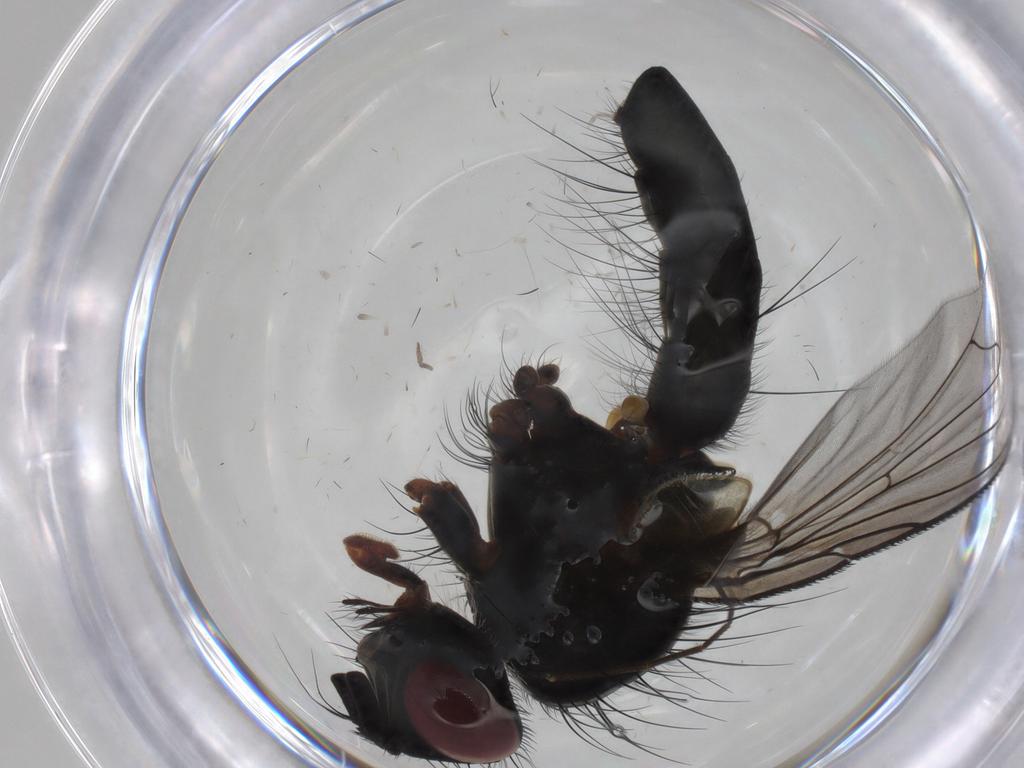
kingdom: Animalia
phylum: Arthropoda
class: Insecta
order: Diptera
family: Tachinidae
